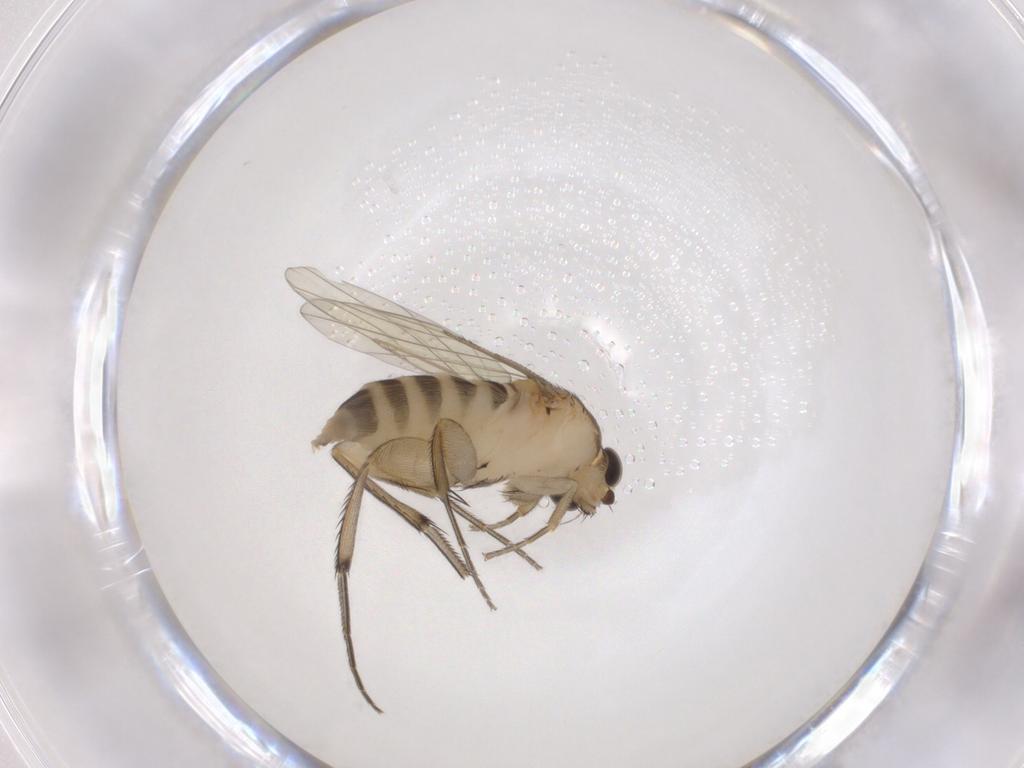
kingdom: Animalia
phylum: Arthropoda
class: Insecta
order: Diptera
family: Phoridae
